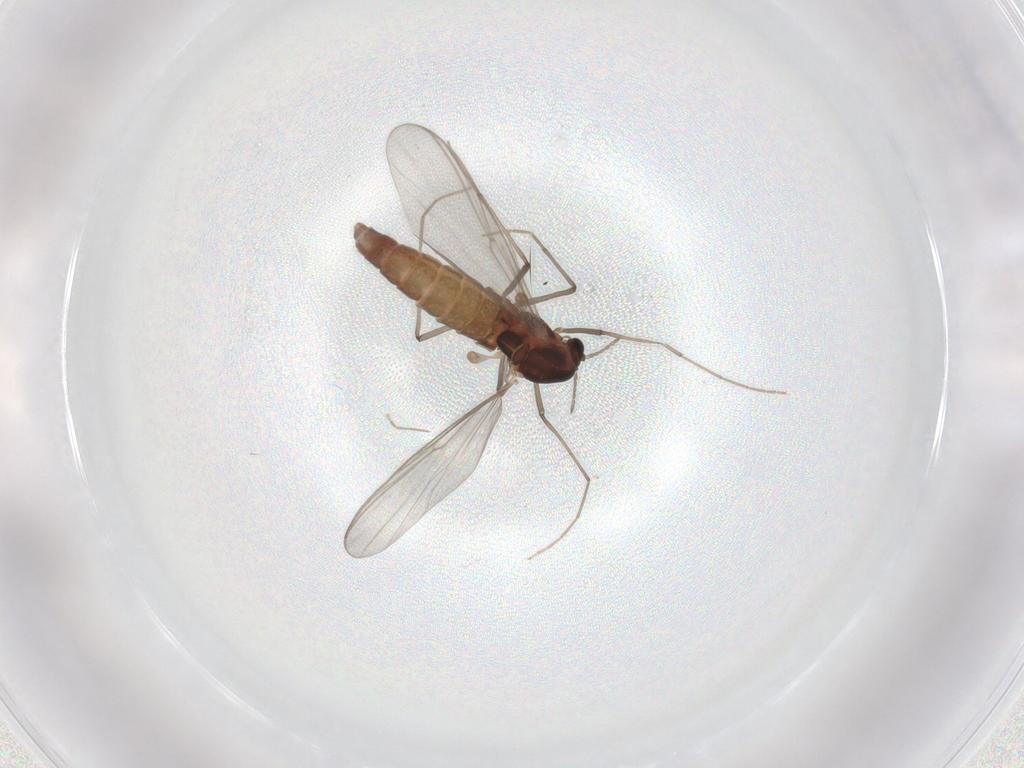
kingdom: Animalia
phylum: Arthropoda
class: Insecta
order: Diptera
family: Chironomidae
